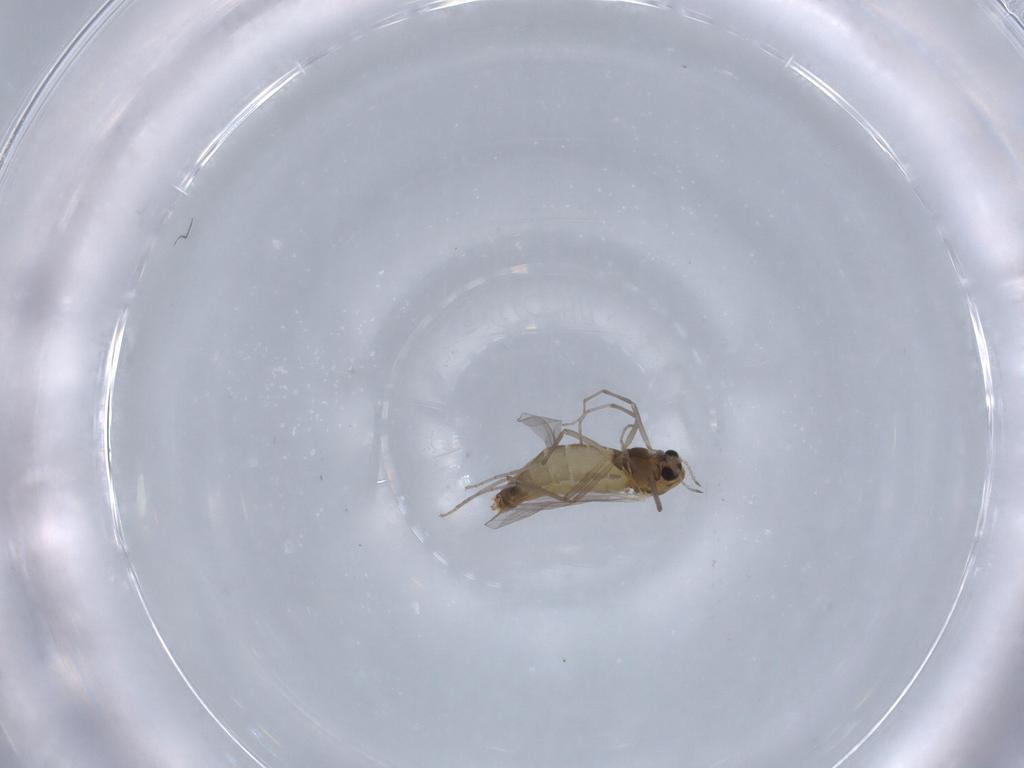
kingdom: Animalia
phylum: Arthropoda
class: Insecta
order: Diptera
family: Chironomidae
